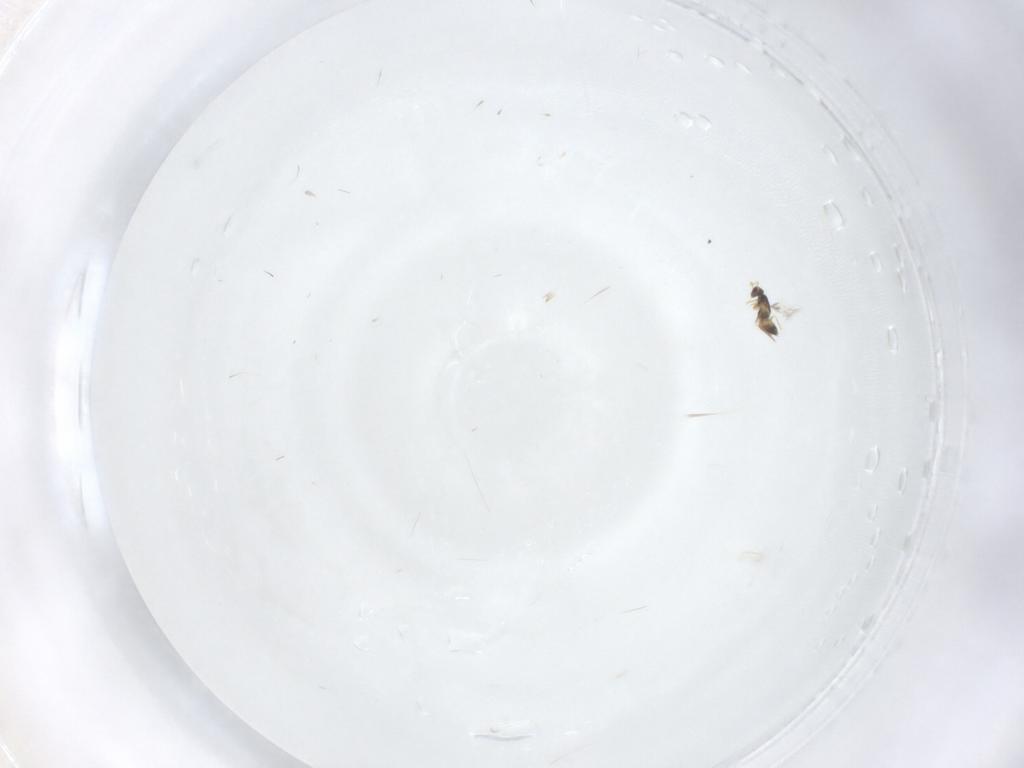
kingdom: Animalia
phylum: Arthropoda
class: Insecta
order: Hymenoptera
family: Mymaridae
